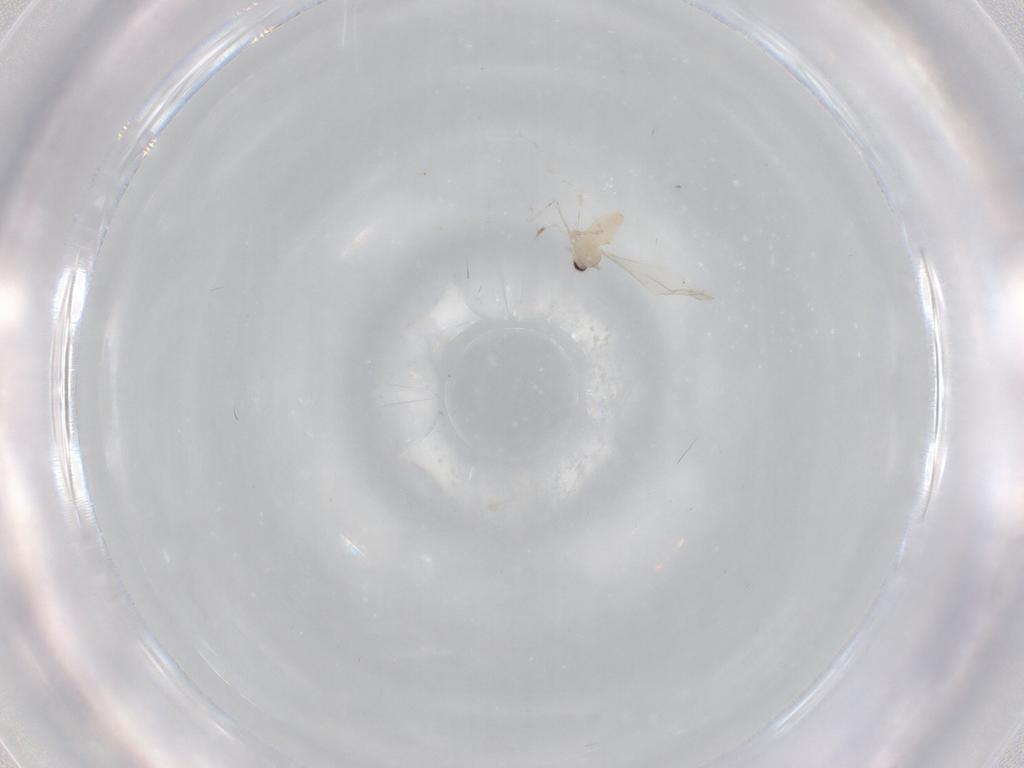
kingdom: Animalia
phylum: Arthropoda
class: Insecta
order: Diptera
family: Cecidomyiidae
